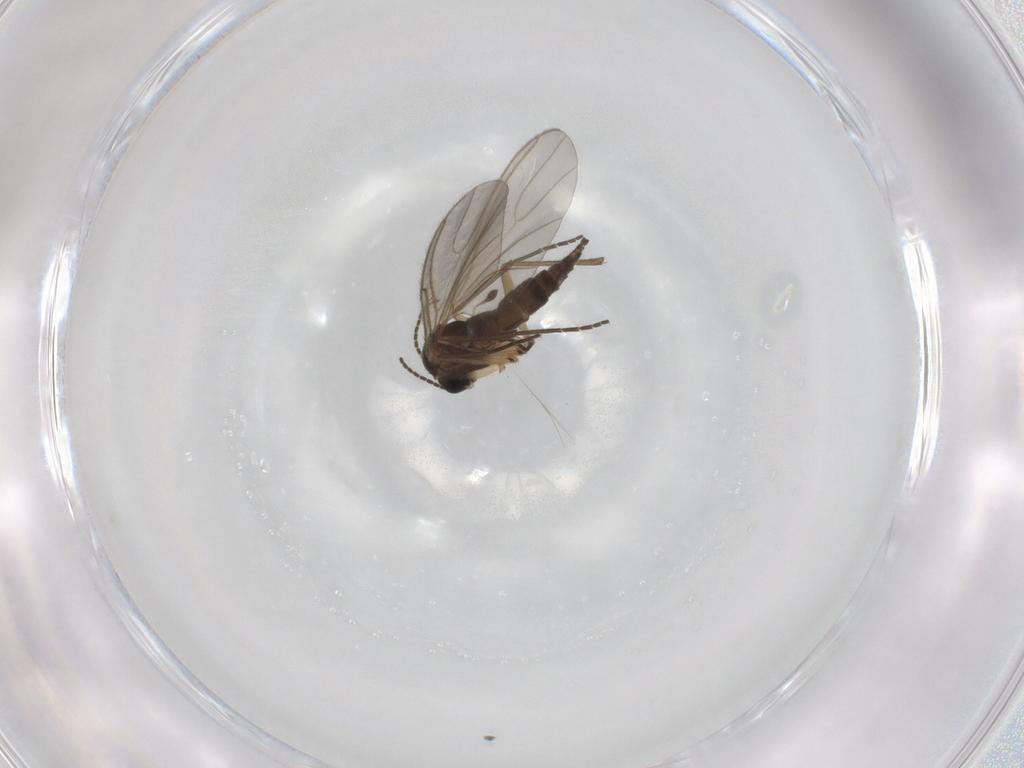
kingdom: Animalia
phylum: Arthropoda
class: Insecta
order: Diptera
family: Sciaridae
